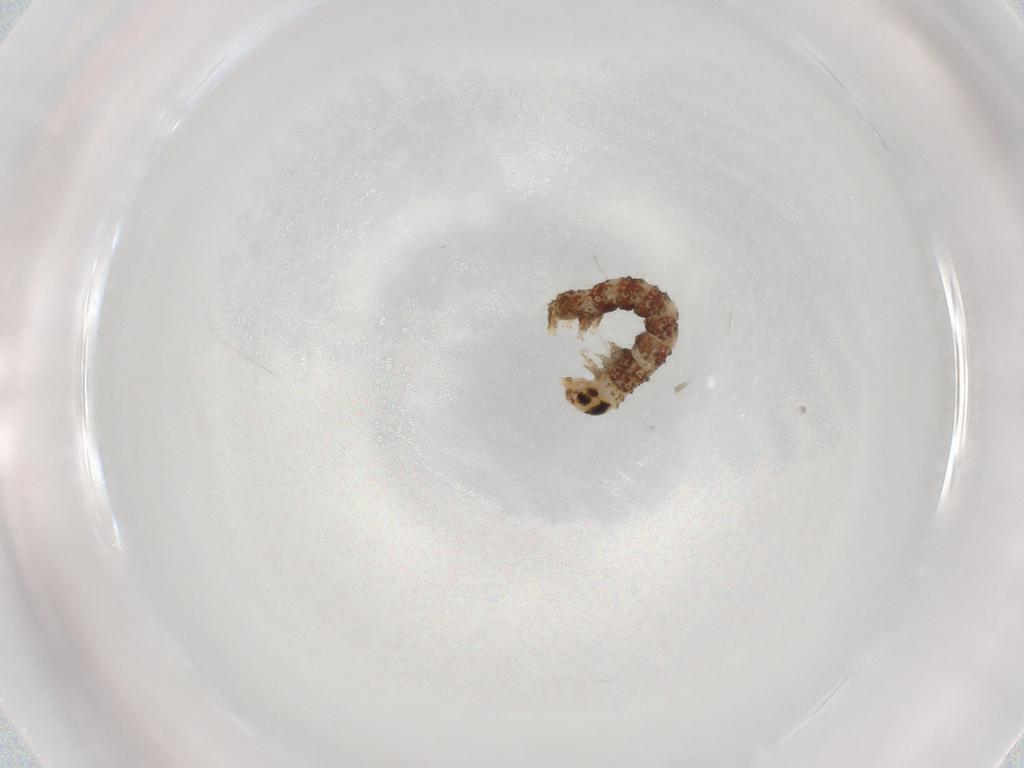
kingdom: Animalia
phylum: Arthropoda
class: Insecta
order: Lepidoptera
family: Geometridae
